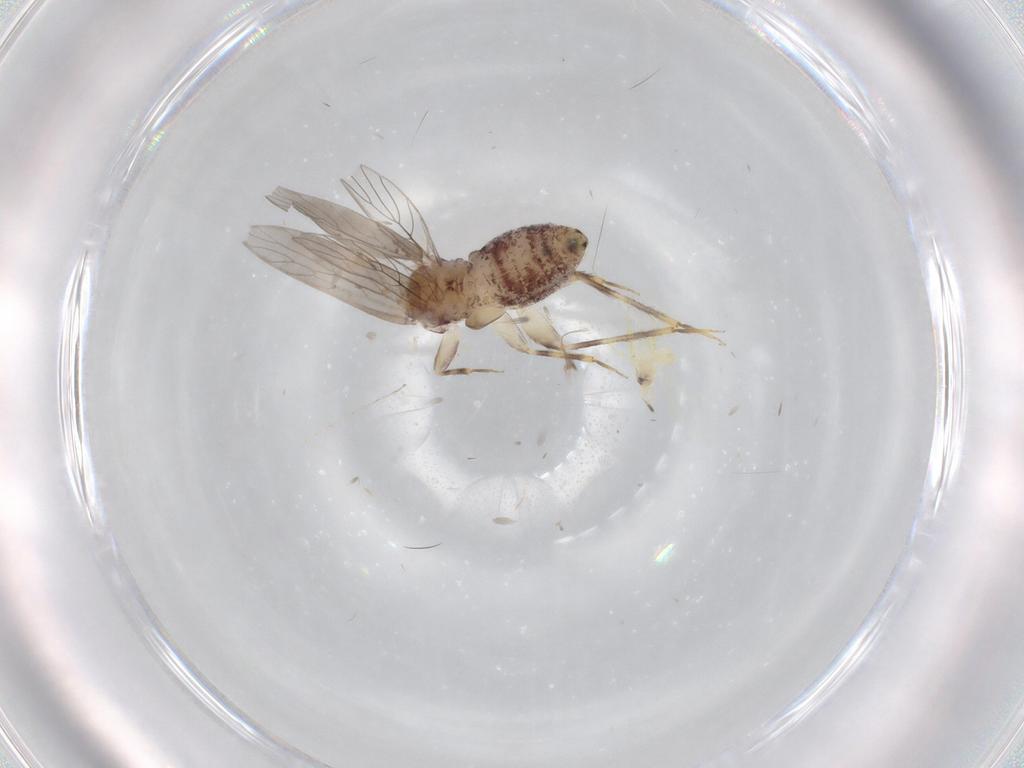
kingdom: Animalia
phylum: Arthropoda
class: Insecta
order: Psocodea
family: Lepidopsocidae
